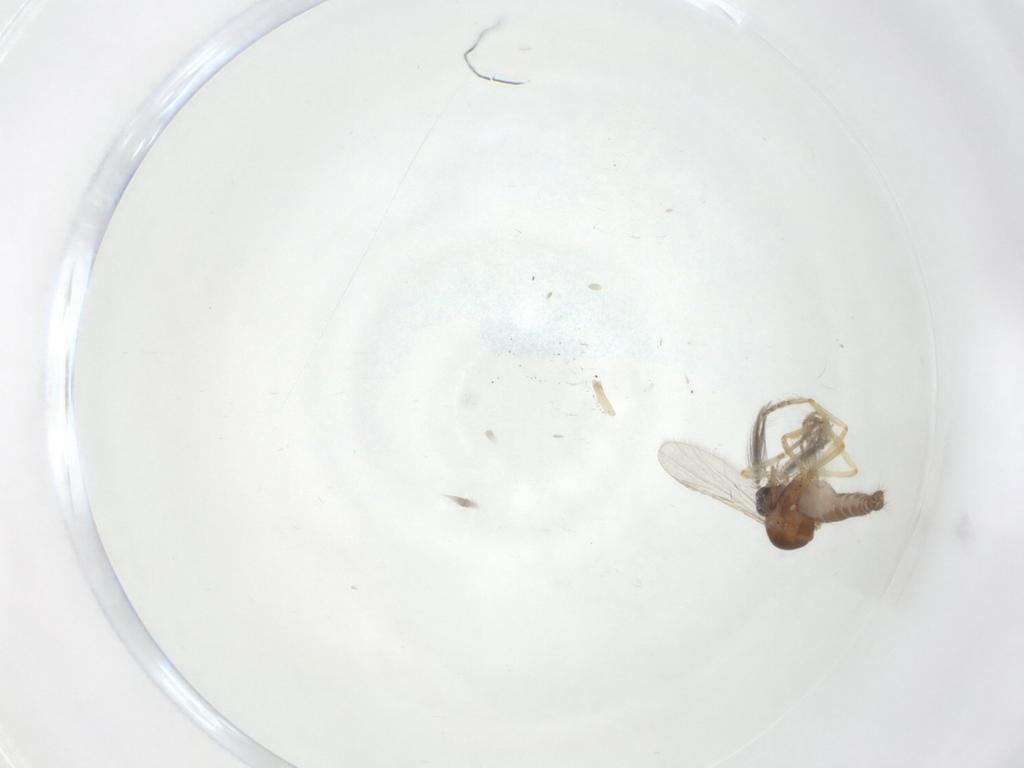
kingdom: Animalia
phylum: Arthropoda
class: Insecta
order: Diptera
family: Ceratopogonidae
